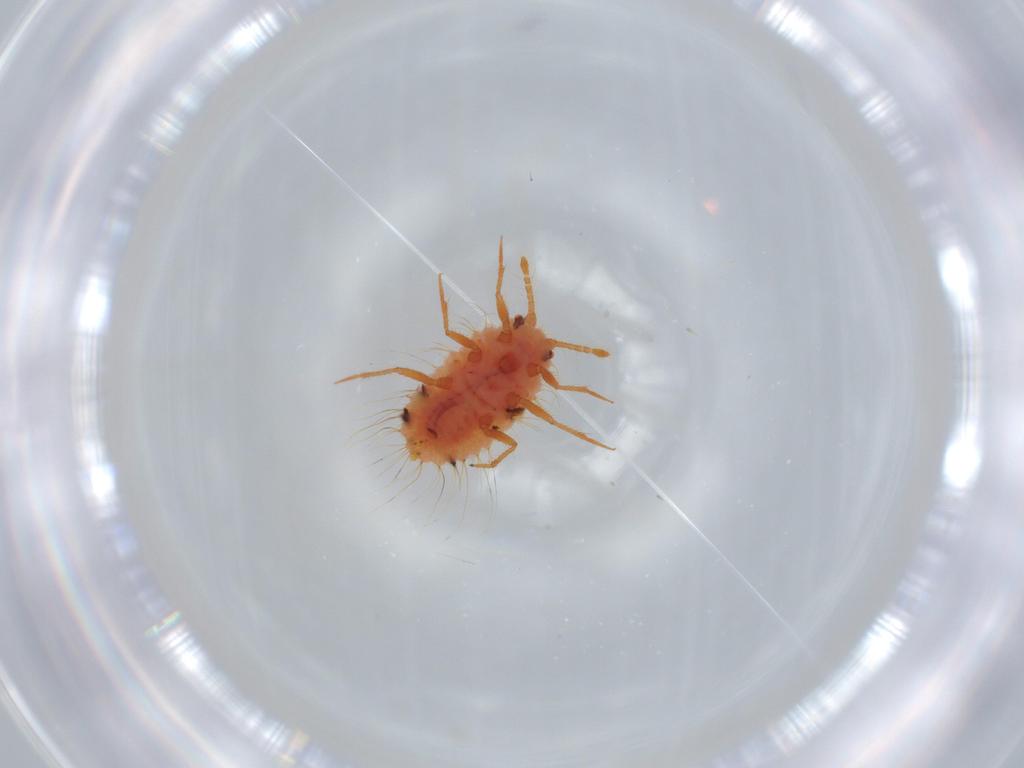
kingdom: Animalia
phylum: Arthropoda
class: Insecta
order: Hemiptera
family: Coccoidea_incertae_sedis
